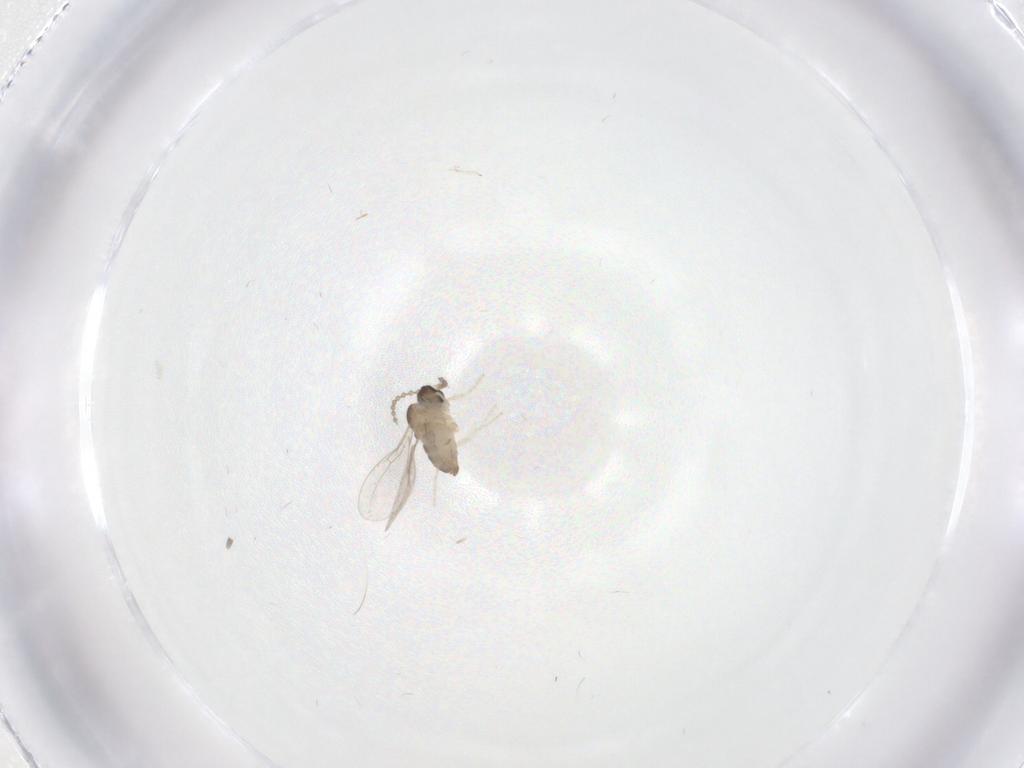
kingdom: Animalia
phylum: Arthropoda
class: Insecta
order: Diptera
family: Cecidomyiidae
